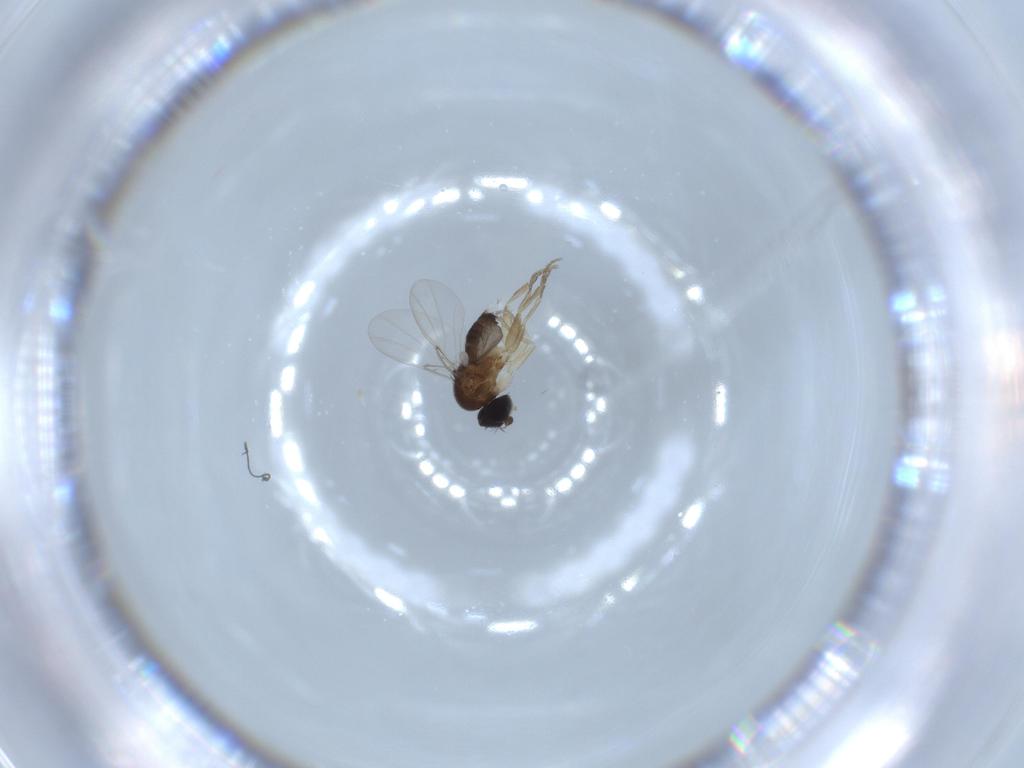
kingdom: Animalia
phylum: Arthropoda
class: Insecta
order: Diptera
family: Phoridae
